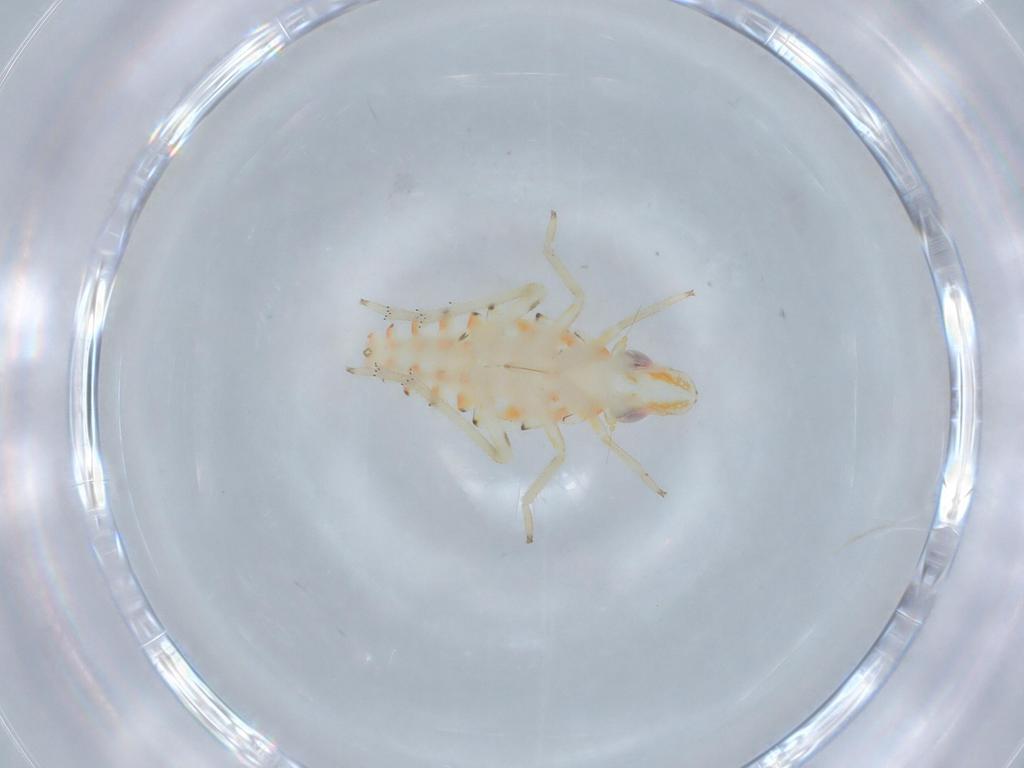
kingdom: Animalia
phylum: Arthropoda
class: Insecta
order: Hemiptera
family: Tropiduchidae
